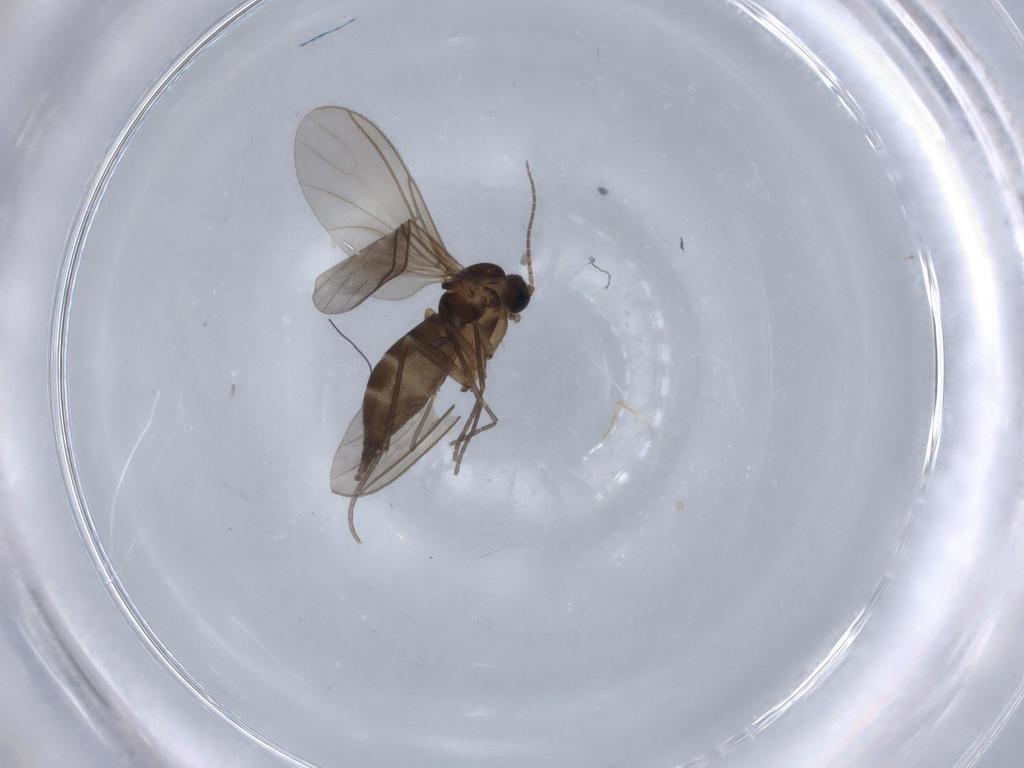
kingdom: Animalia
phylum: Arthropoda
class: Insecta
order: Diptera
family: Sciaridae
